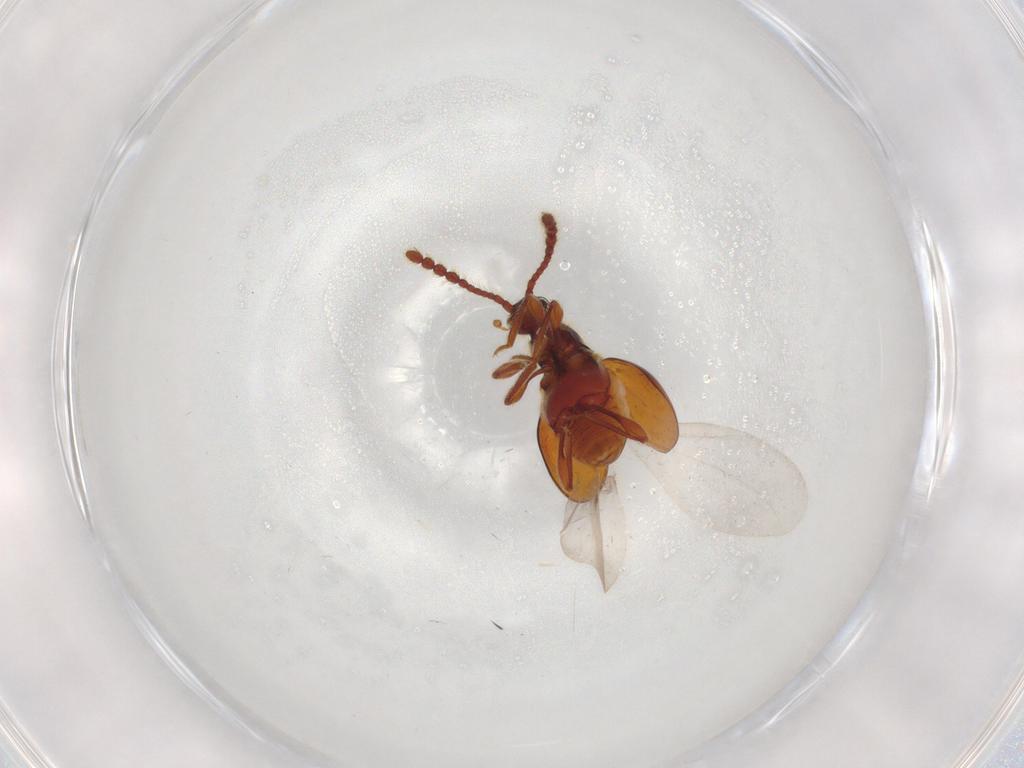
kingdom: Animalia
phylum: Arthropoda
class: Insecta
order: Coleoptera
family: Staphylinidae
